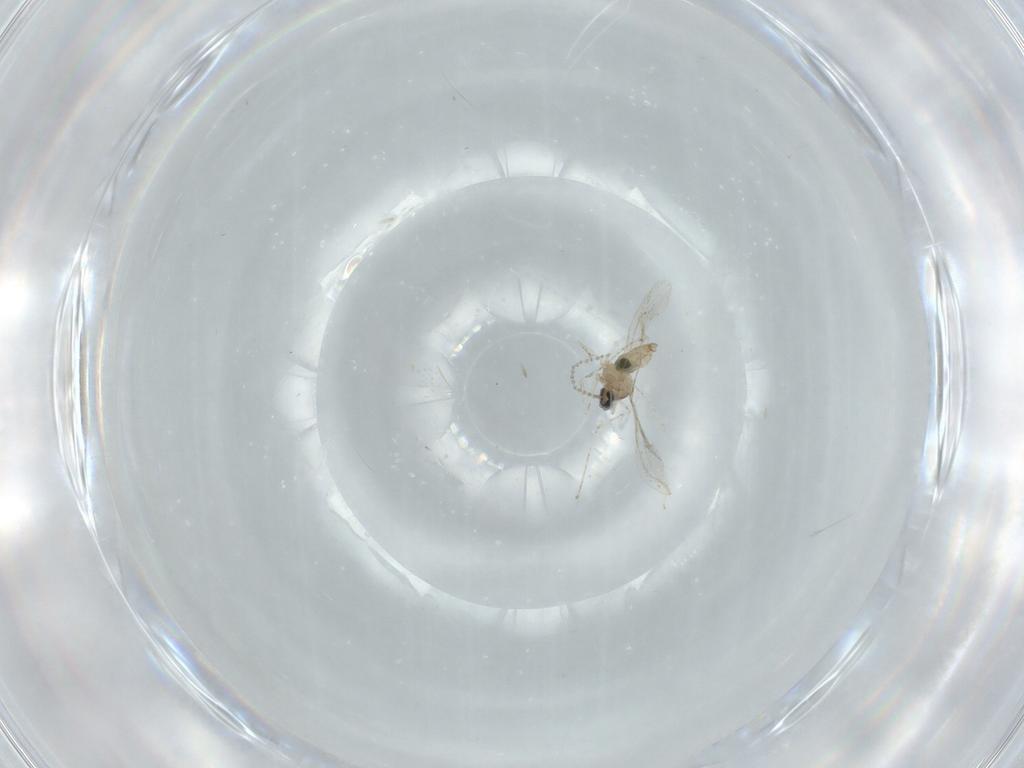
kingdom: Animalia
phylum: Arthropoda
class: Insecta
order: Diptera
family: Cecidomyiidae
